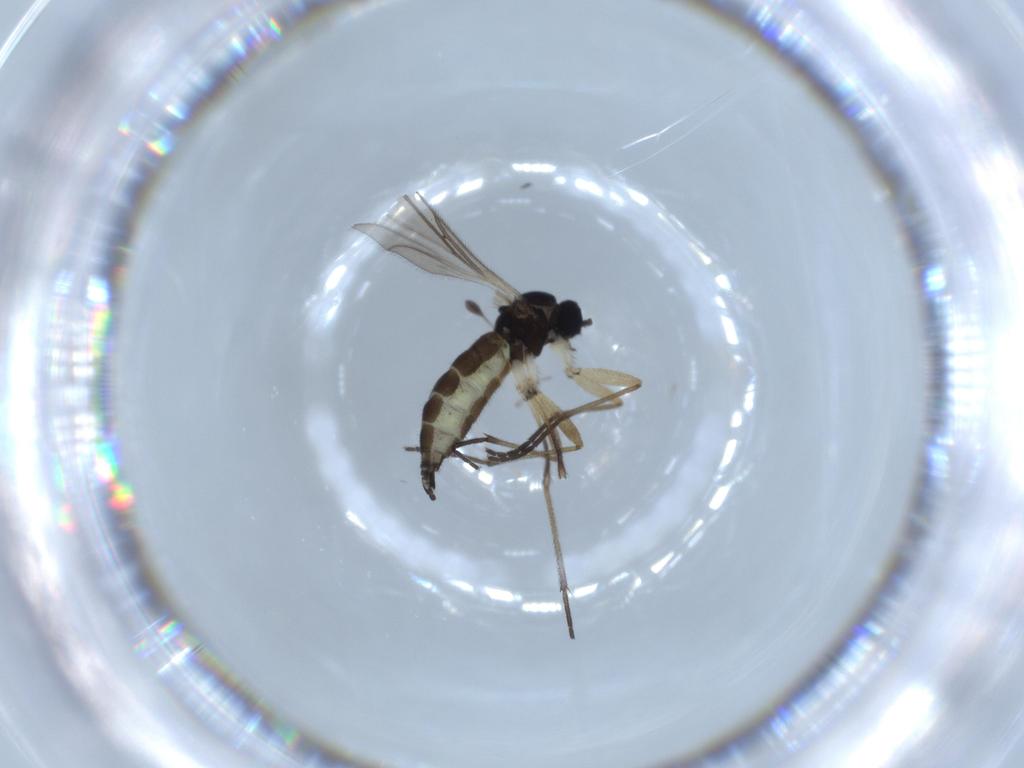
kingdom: Animalia
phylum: Arthropoda
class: Insecta
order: Diptera
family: Sciaridae
